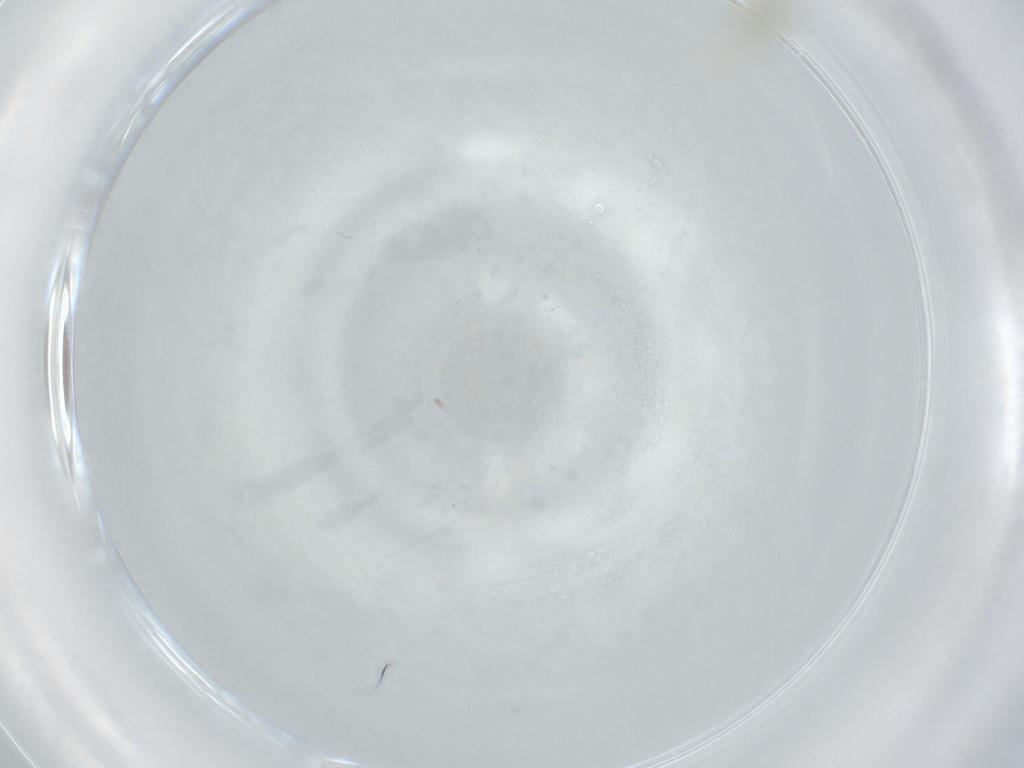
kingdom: Animalia
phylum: Arthropoda
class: Insecta
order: Diptera
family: Cecidomyiidae
